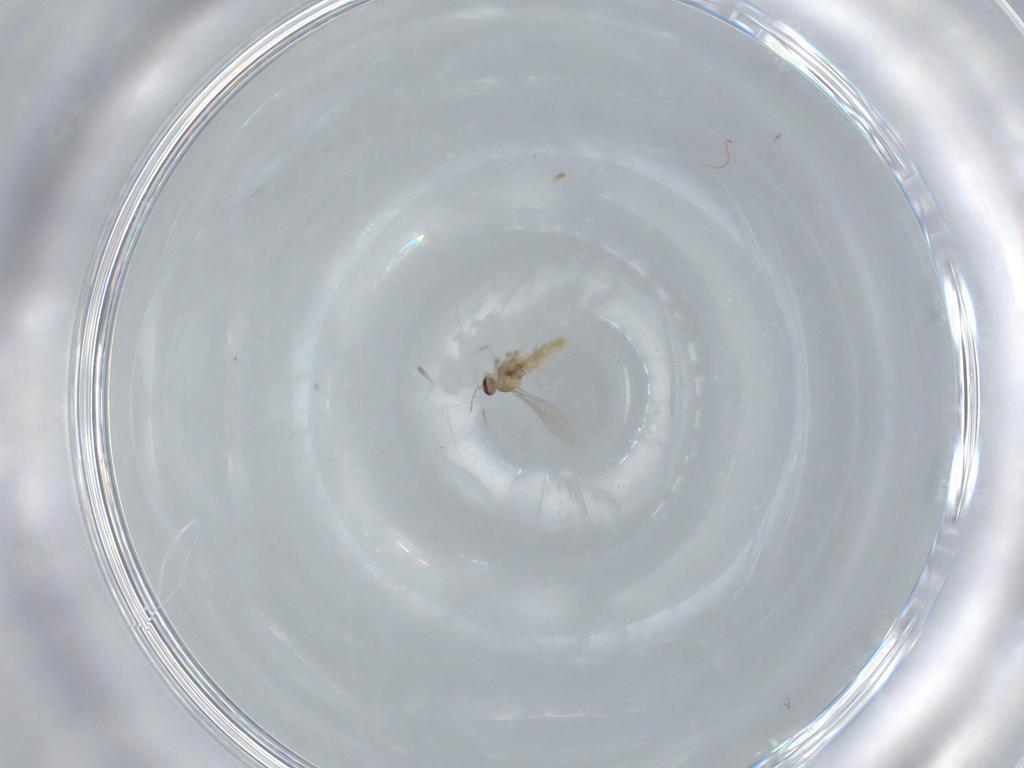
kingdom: Animalia
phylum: Arthropoda
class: Insecta
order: Diptera
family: Cecidomyiidae
